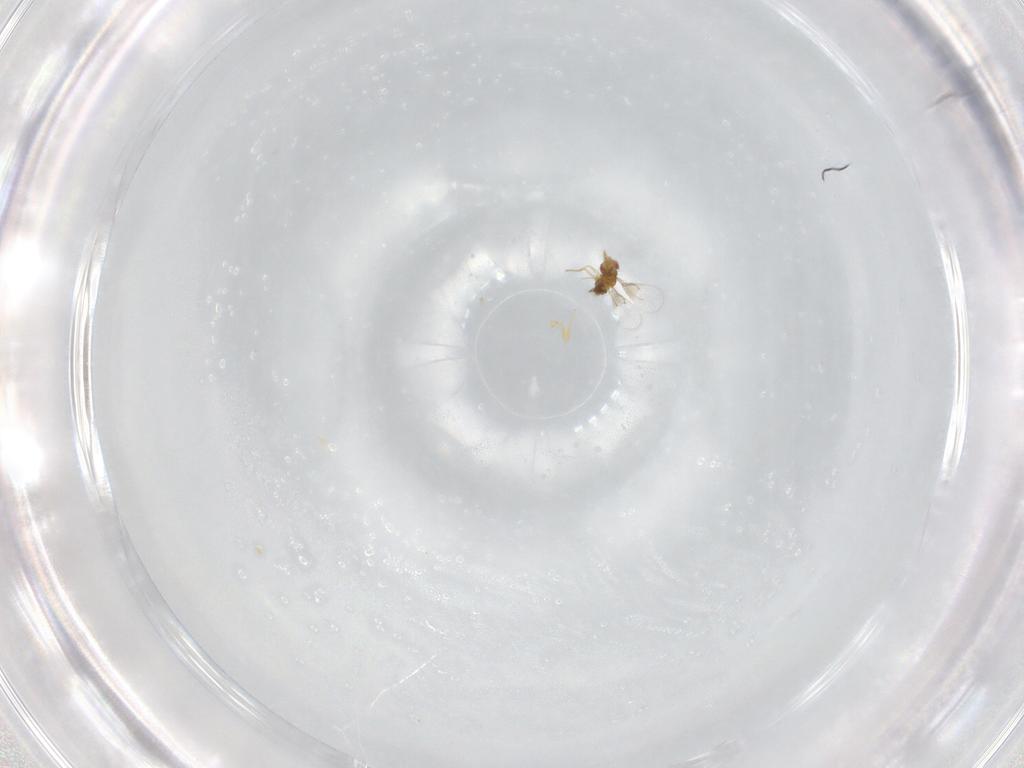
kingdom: Animalia
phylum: Arthropoda
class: Insecta
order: Hymenoptera
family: Trichogrammatidae
